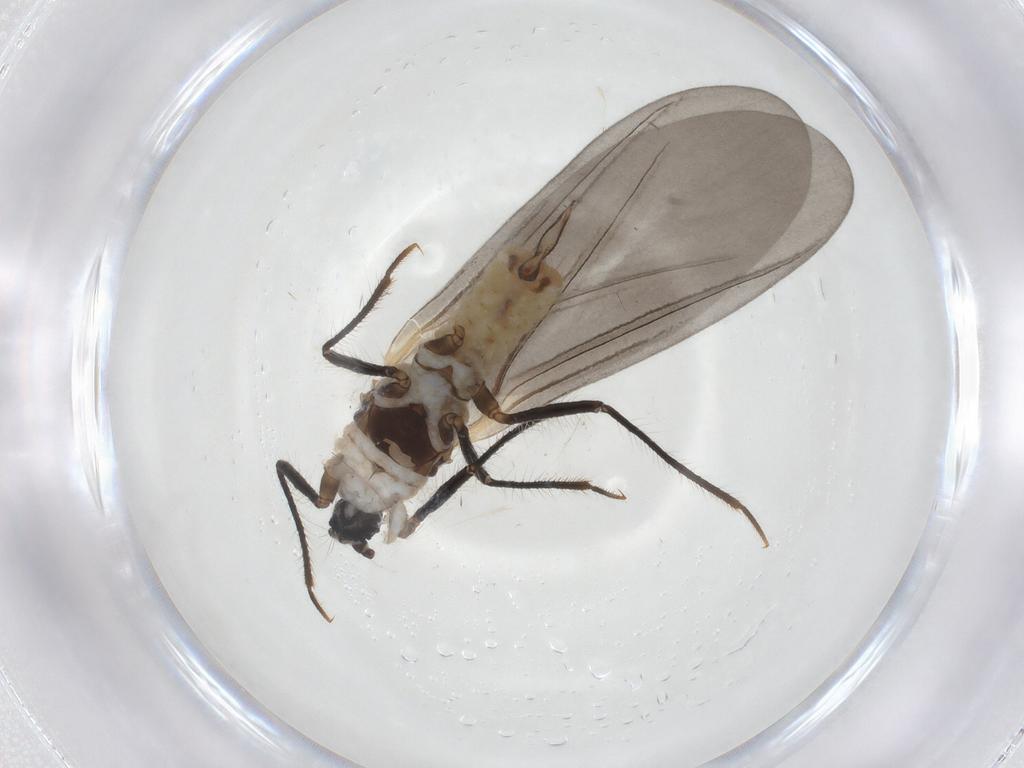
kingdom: Animalia
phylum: Arthropoda
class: Insecta
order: Hemiptera
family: Putoidae
